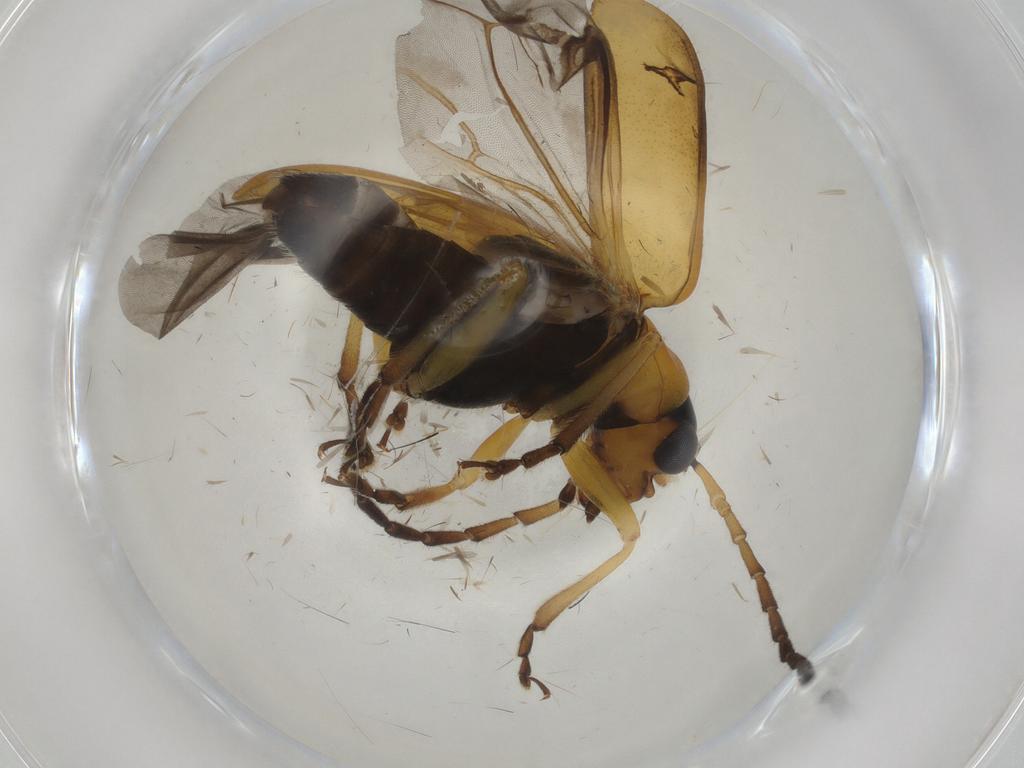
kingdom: Animalia
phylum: Arthropoda
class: Insecta
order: Coleoptera
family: Chrysomelidae
